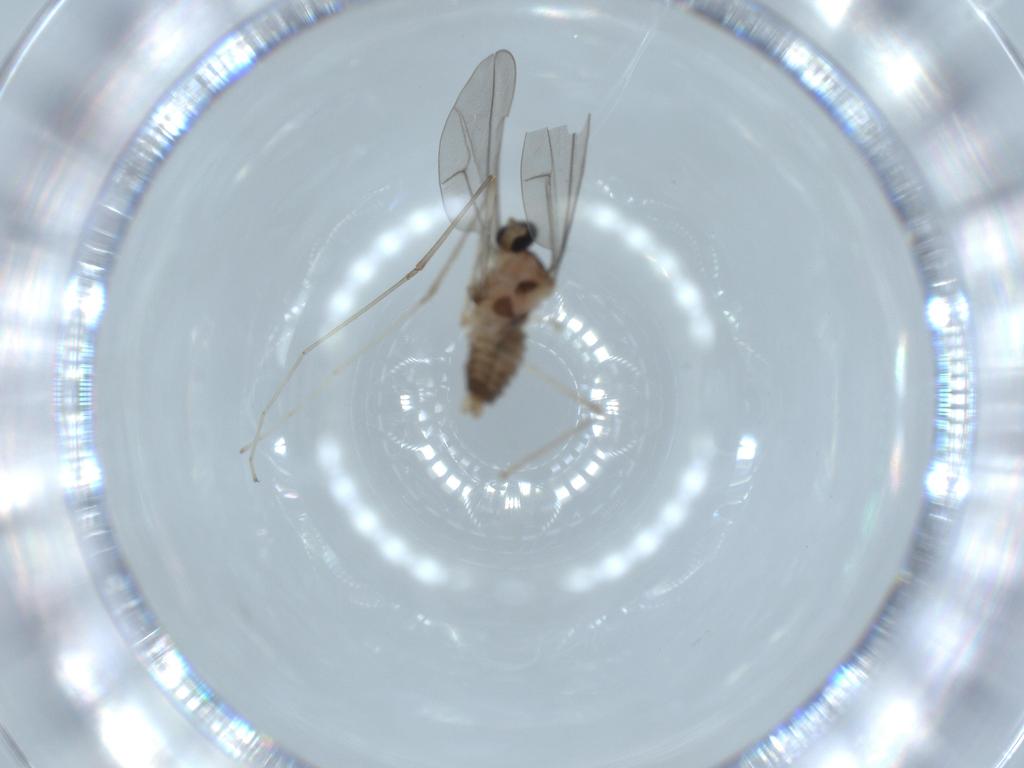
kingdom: Animalia
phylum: Arthropoda
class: Insecta
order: Diptera
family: Cecidomyiidae
